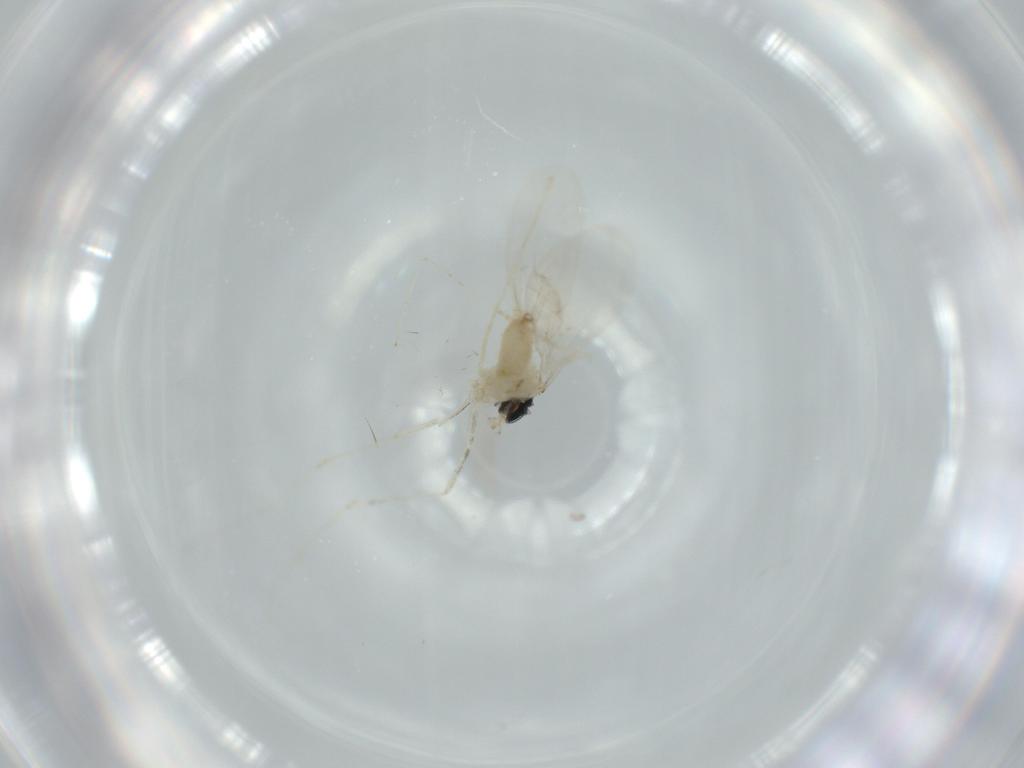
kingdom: Animalia
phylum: Arthropoda
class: Insecta
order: Diptera
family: Cecidomyiidae
